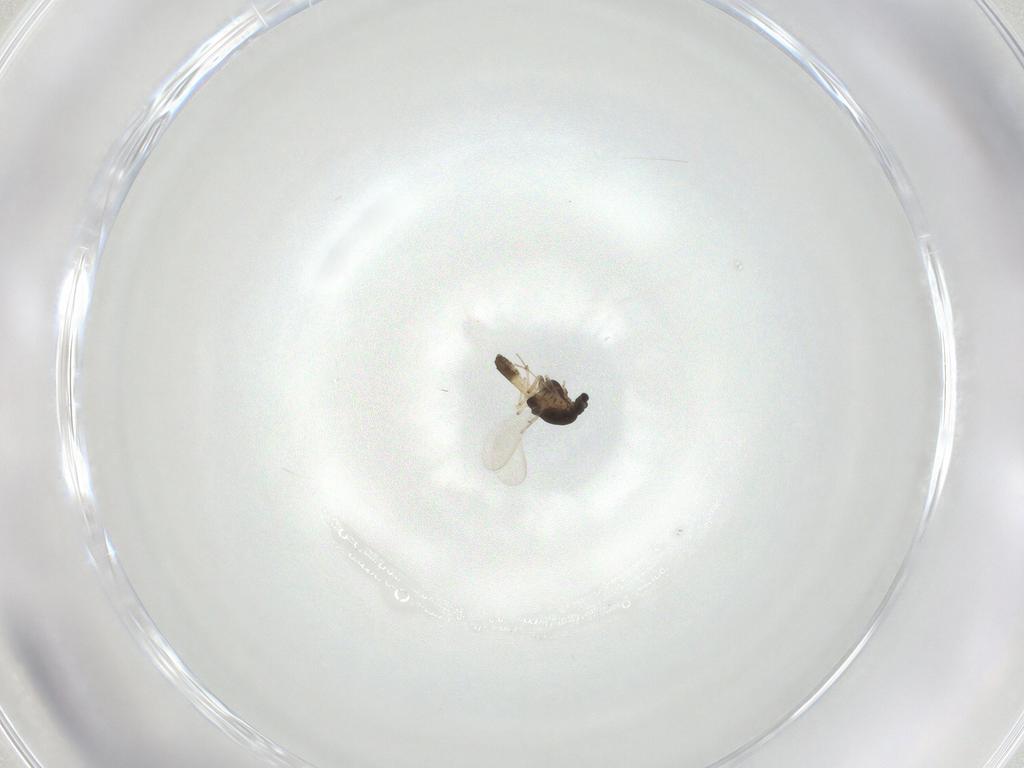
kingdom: Animalia
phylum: Arthropoda
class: Insecta
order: Diptera
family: Chironomidae
